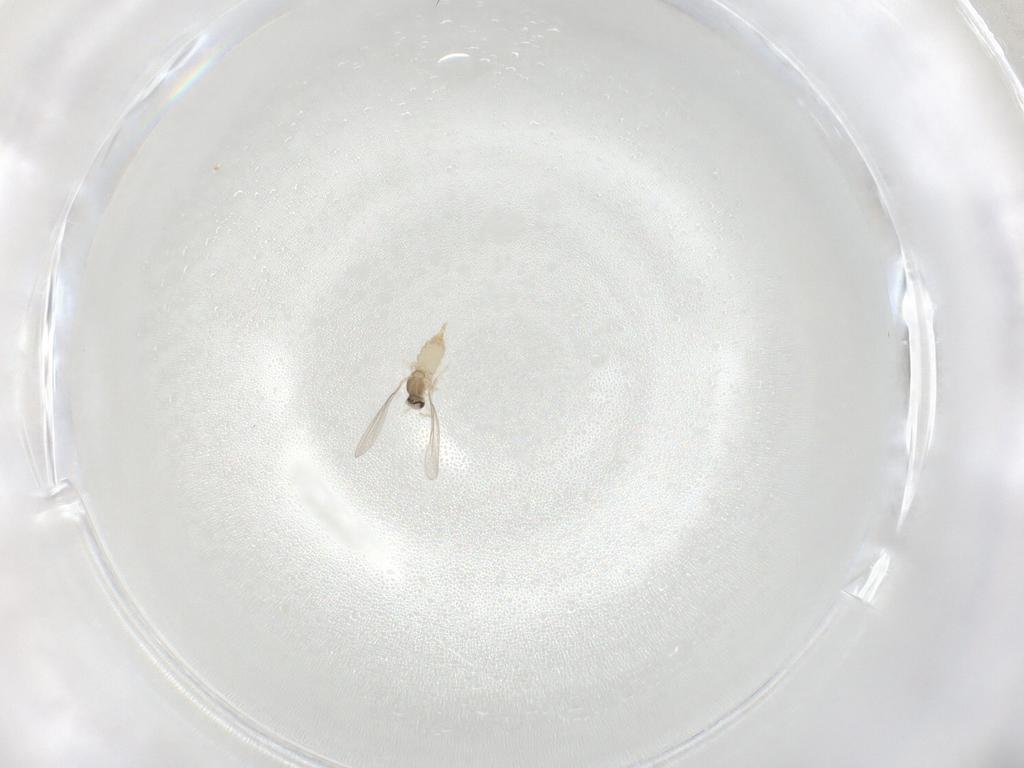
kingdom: Animalia
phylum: Arthropoda
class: Insecta
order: Diptera
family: Cecidomyiidae
